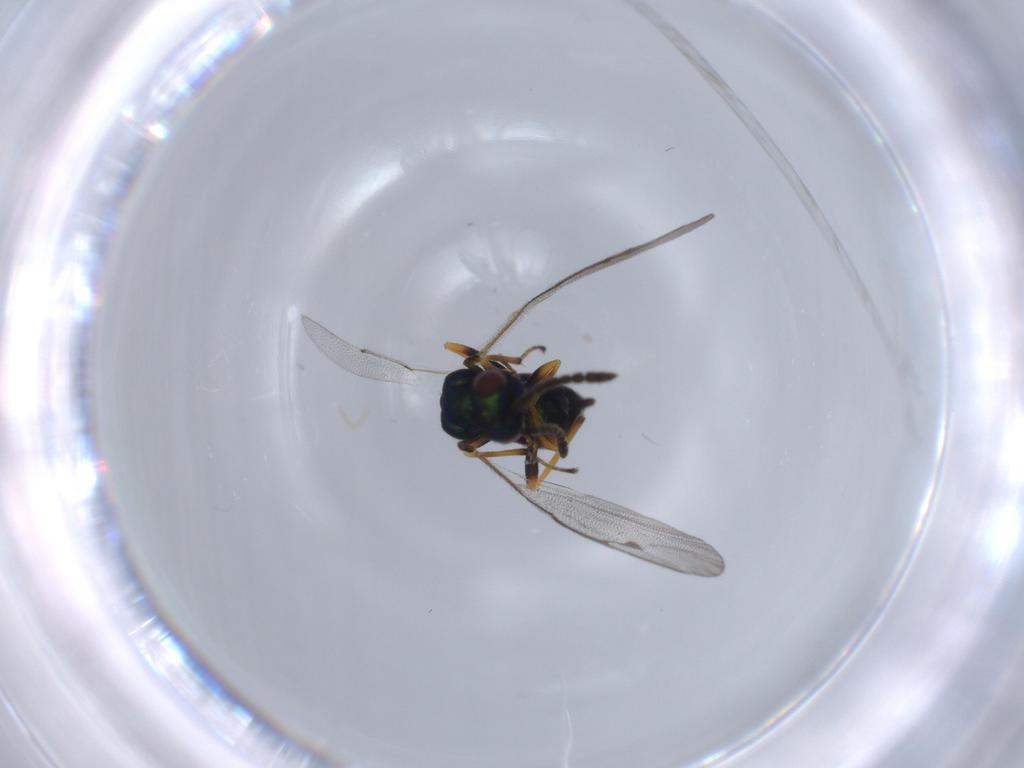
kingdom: Animalia
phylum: Arthropoda
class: Insecta
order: Hymenoptera
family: Pteromalidae
